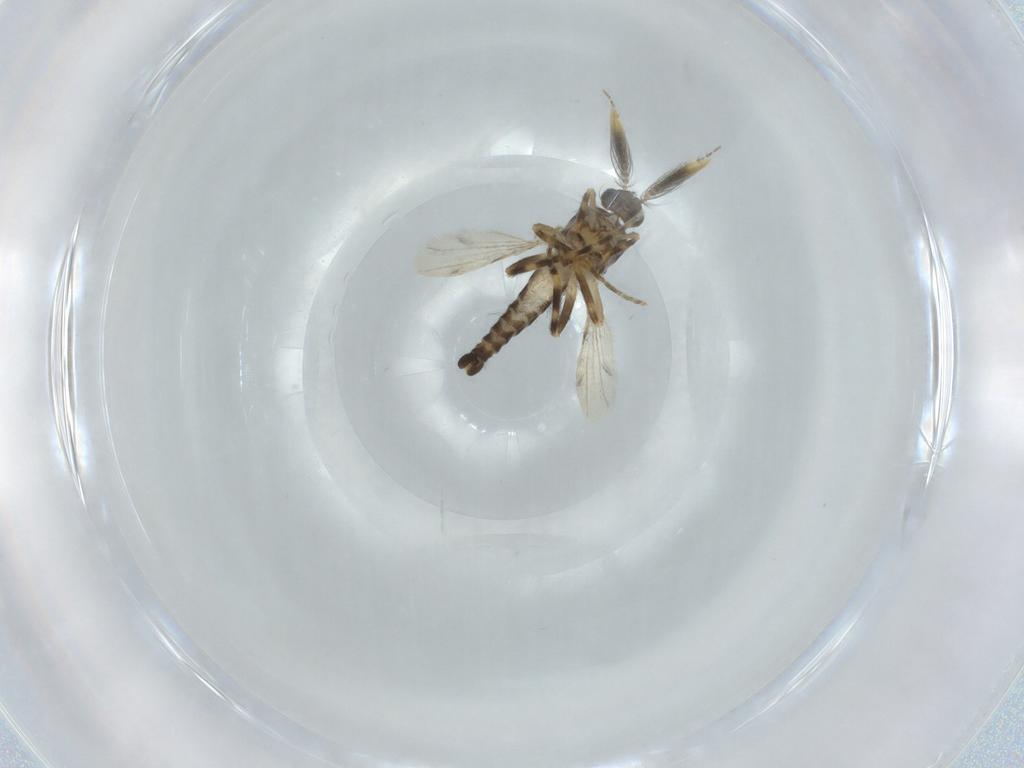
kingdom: Animalia
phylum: Arthropoda
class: Insecta
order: Diptera
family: Ceratopogonidae
